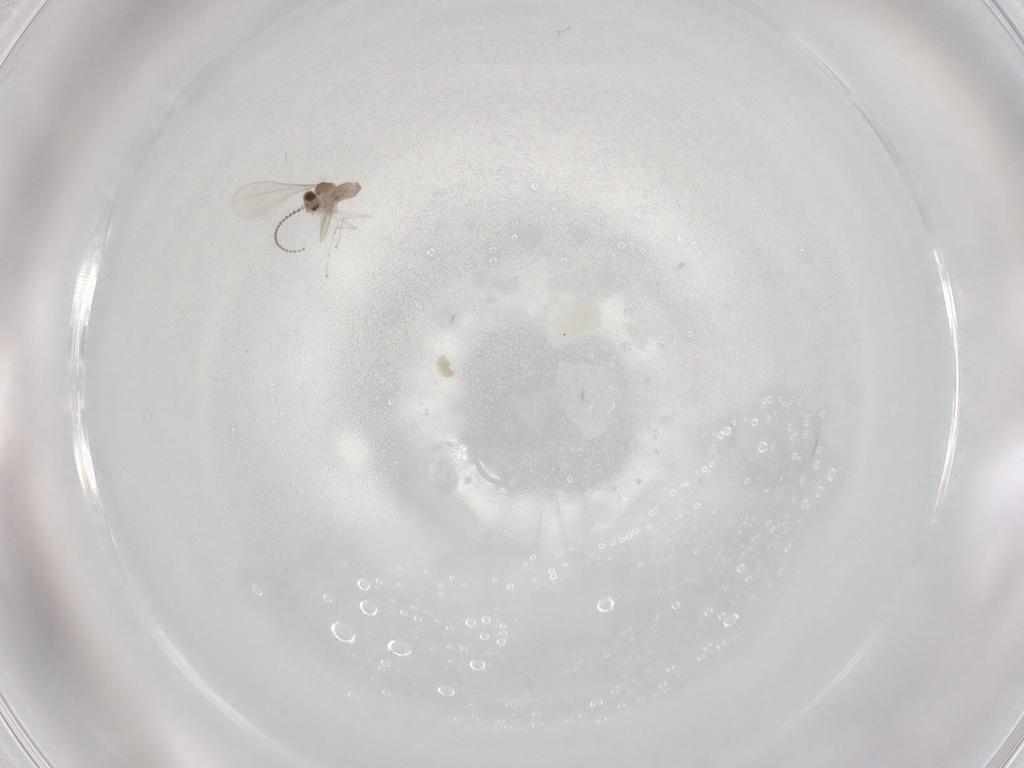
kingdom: Animalia
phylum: Arthropoda
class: Insecta
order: Diptera
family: Cecidomyiidae
